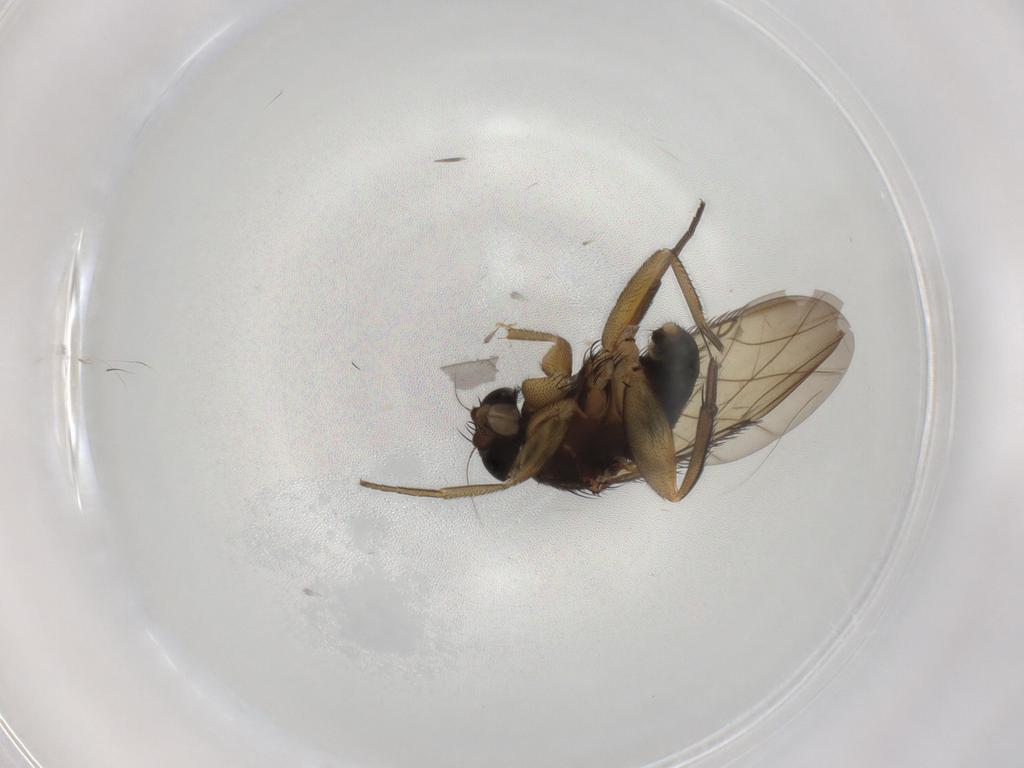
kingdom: Animalia
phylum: Arthropoda
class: Insecta
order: Diptera
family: Phoridae
